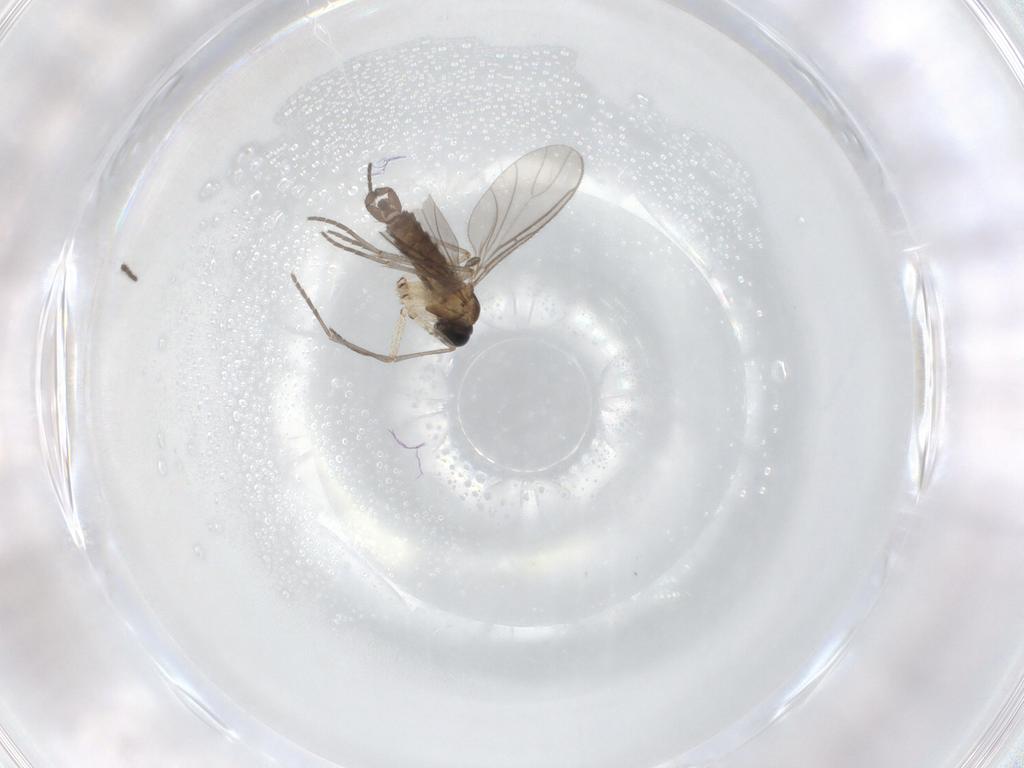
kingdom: Animalia
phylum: Arthropoda
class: Insecta
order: Diptera
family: Sciaridae
